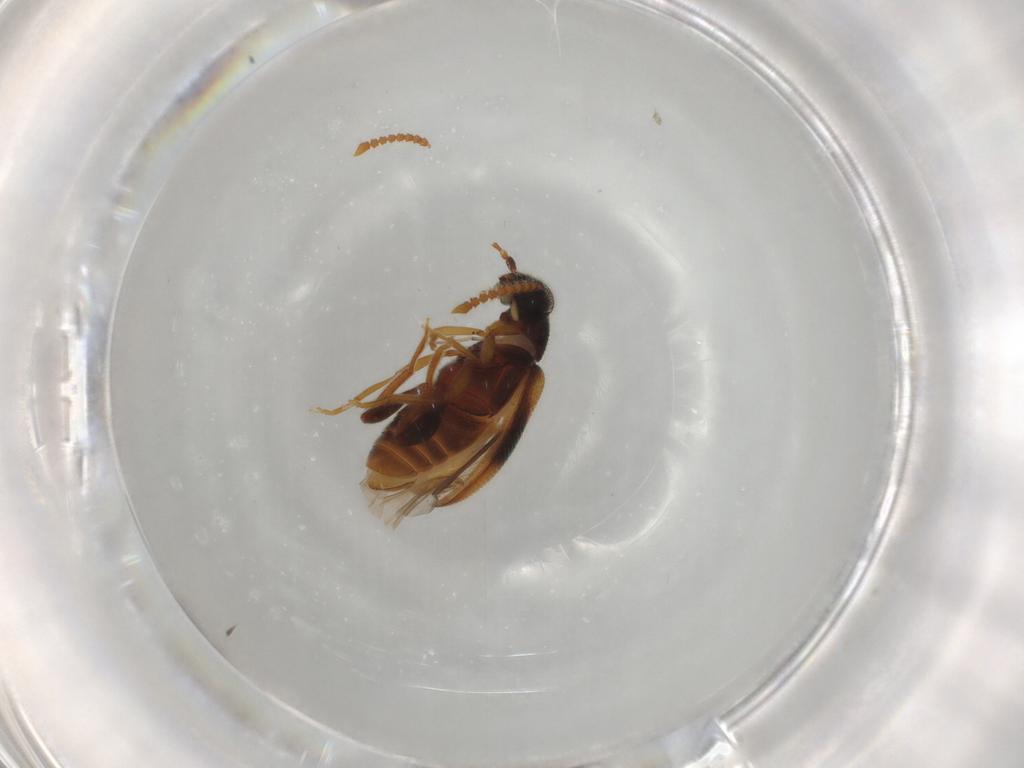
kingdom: Animalia
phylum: Arthropoda
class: Insecta
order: Coleoptera
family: Aderidae
